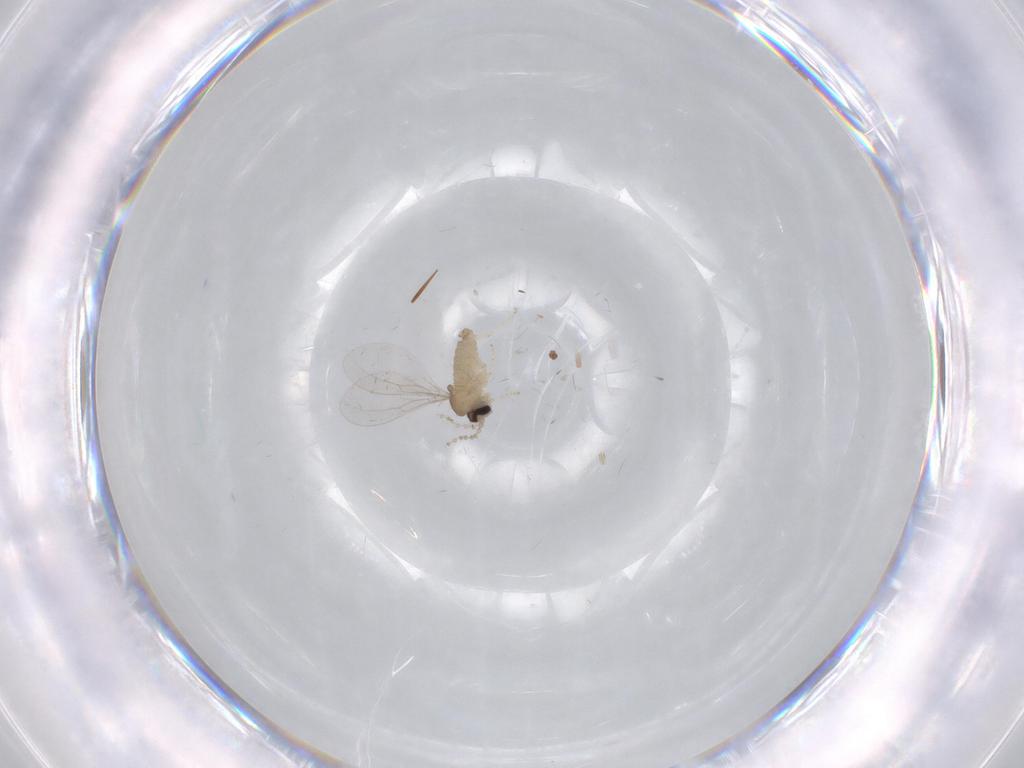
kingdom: Animalia
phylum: Arthropoda
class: Insecta
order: Diptera
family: Cecidomyiidae
